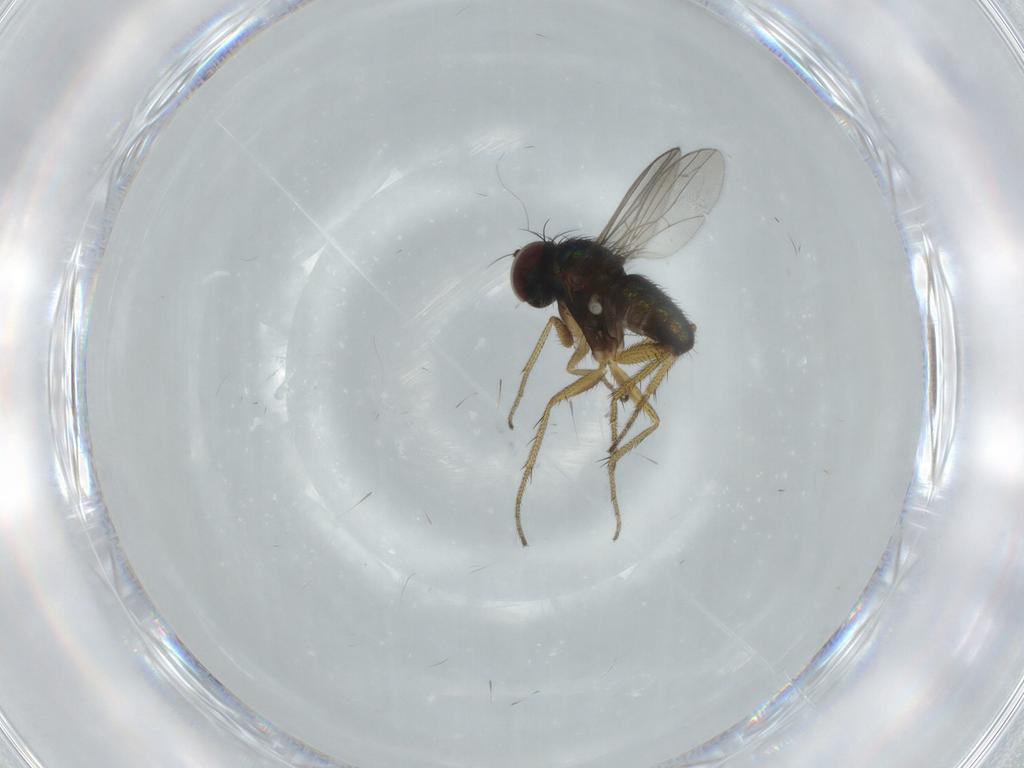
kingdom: Animalia
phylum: Arthropoda
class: Insecta
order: Diptera
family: Dolichopodidae
